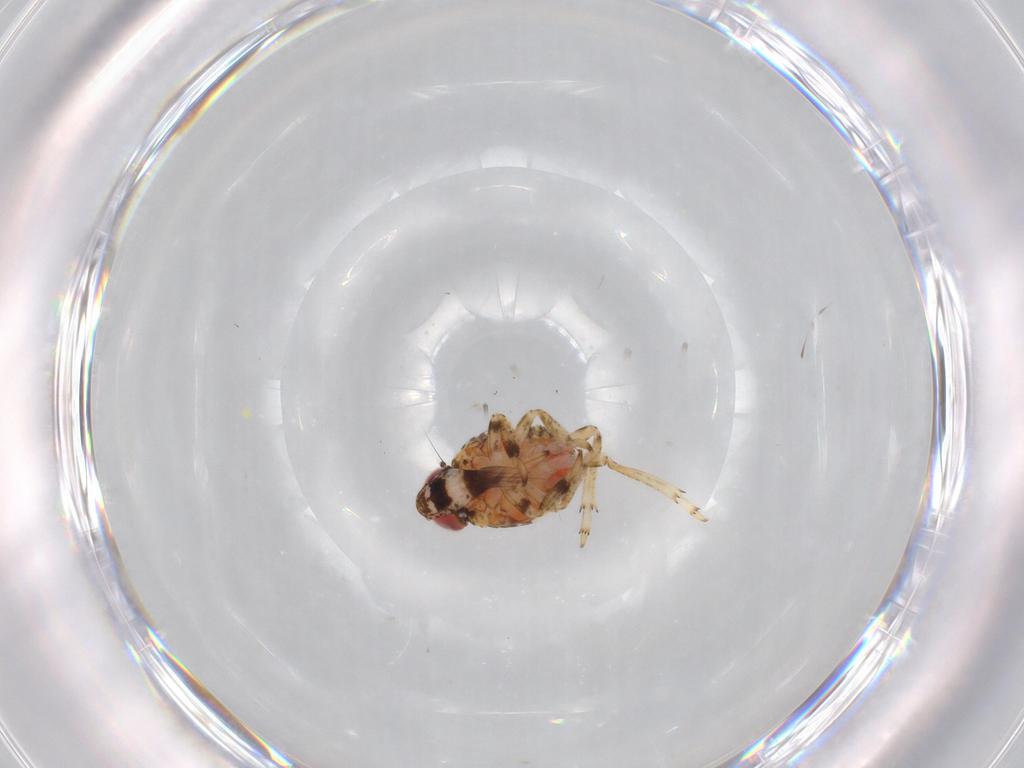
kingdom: Animalia
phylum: Arthropoda
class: Insecta
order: Hemiptera
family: Issidae
